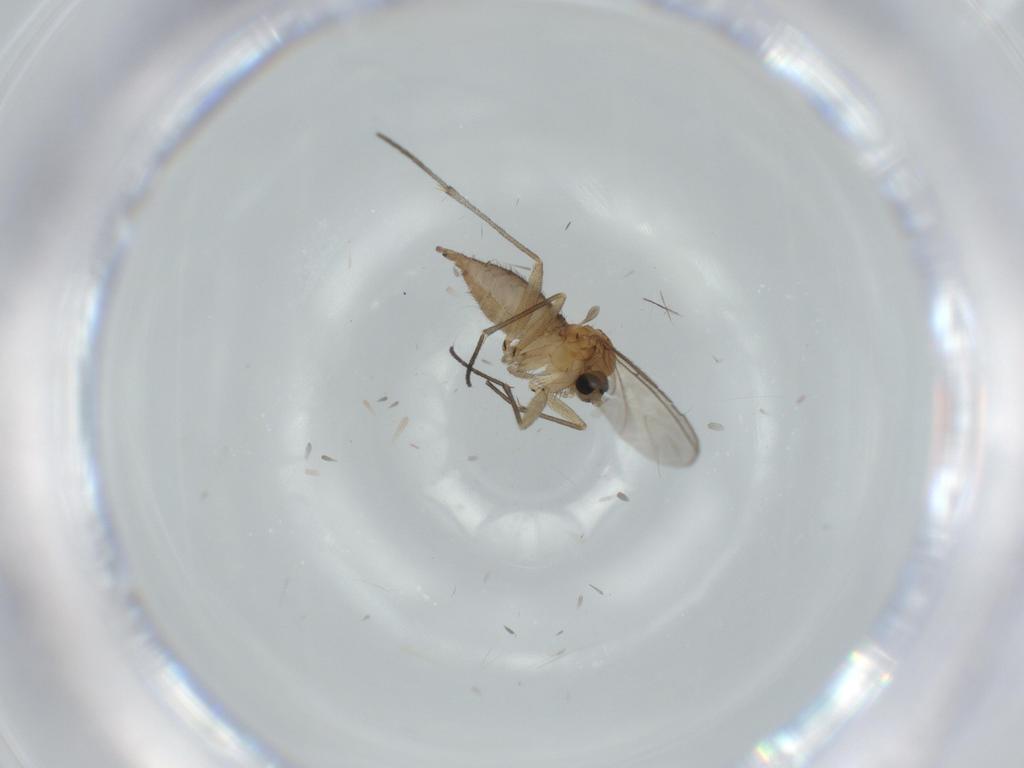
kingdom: Animalia
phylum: Arthropoda
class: Insecta
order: Diptera
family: Sciaridae
